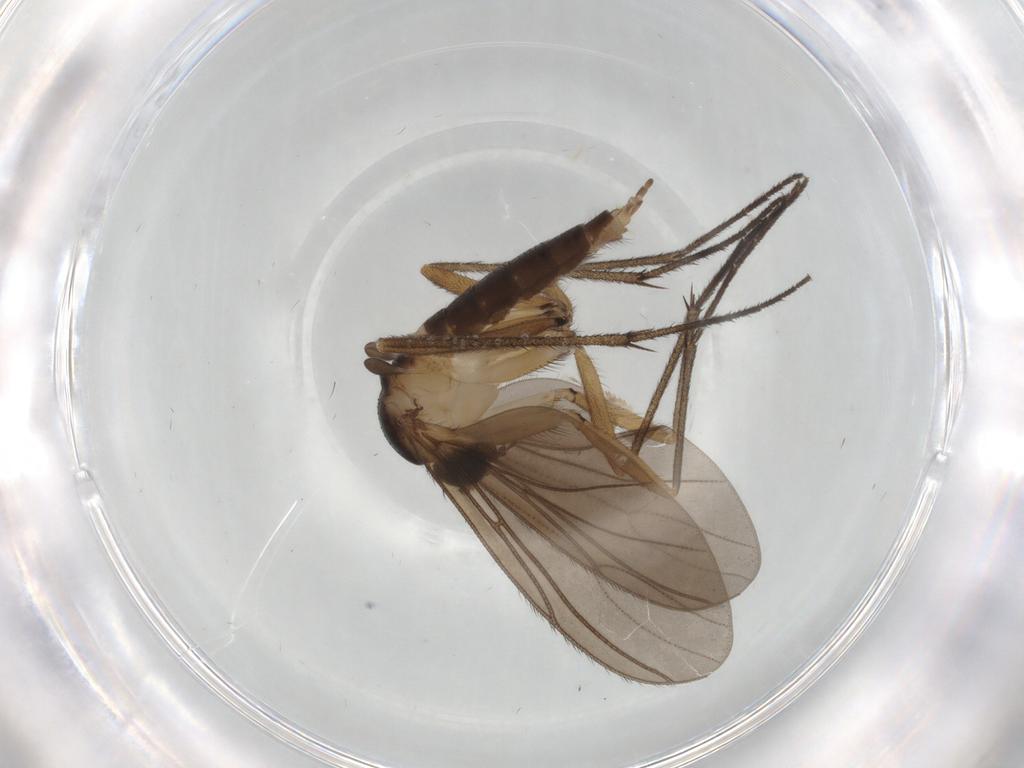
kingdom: Animalia
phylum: Arthropoda
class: Insecta
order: Diptera
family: Sciaridae
